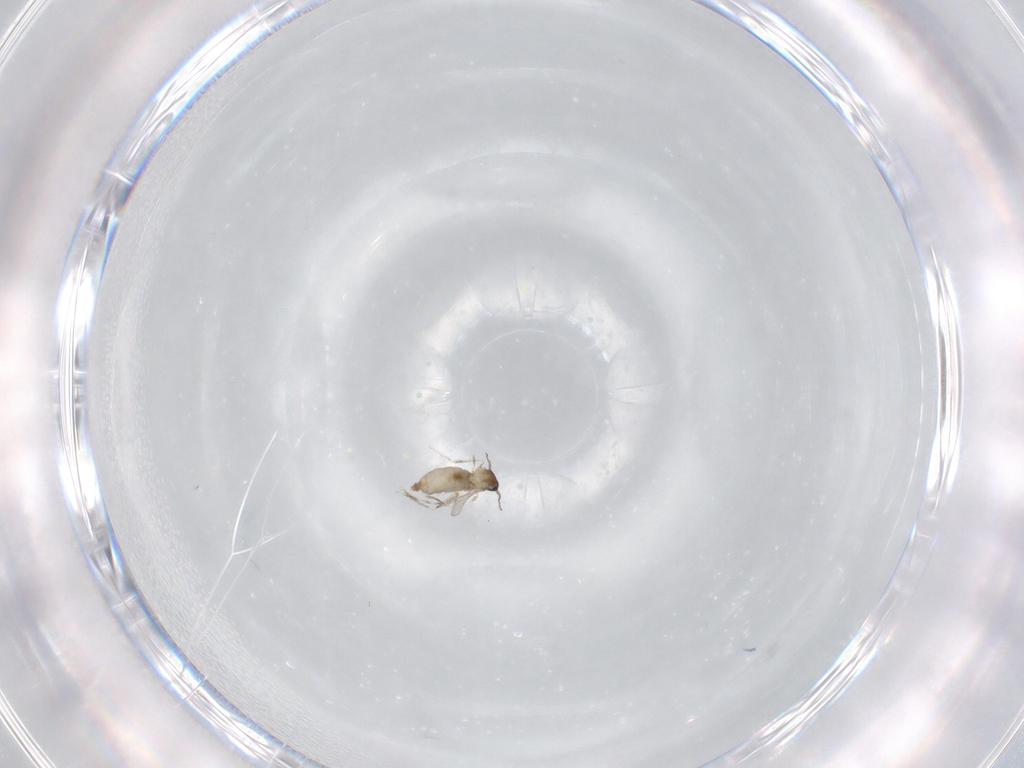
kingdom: Animalia
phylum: Arthropoda
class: Insecta
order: Diptera
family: Cecidomyiidae
